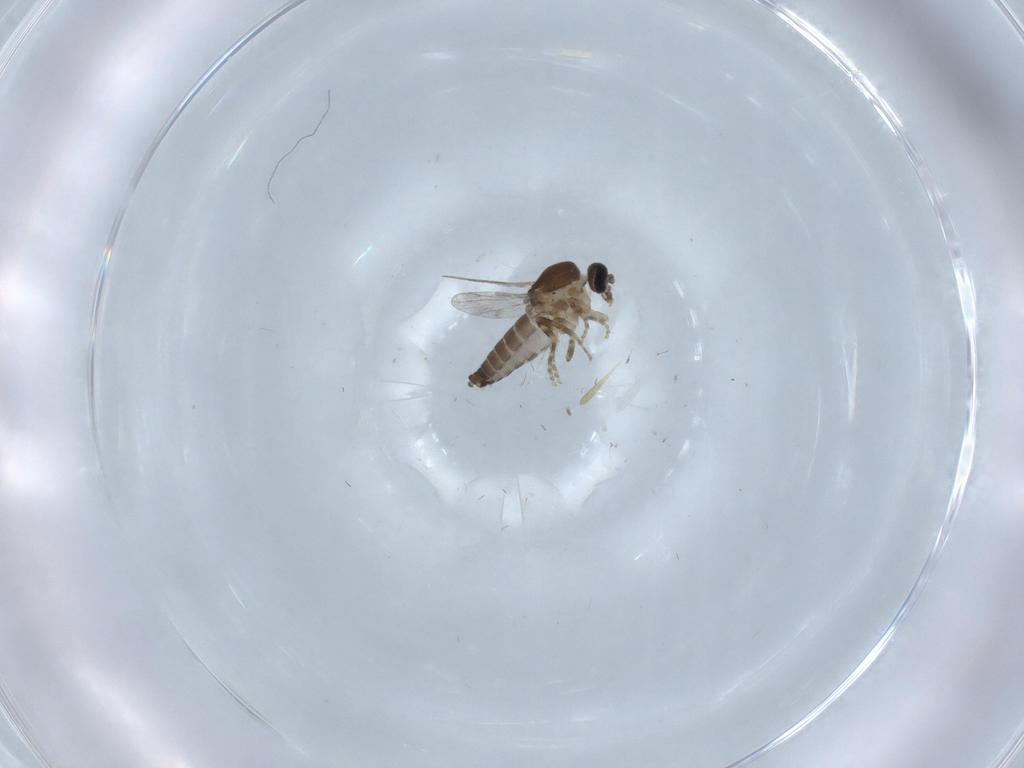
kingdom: Animalia
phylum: Arthropoda
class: Insecta
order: Diptera
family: Ceratopogonidae
